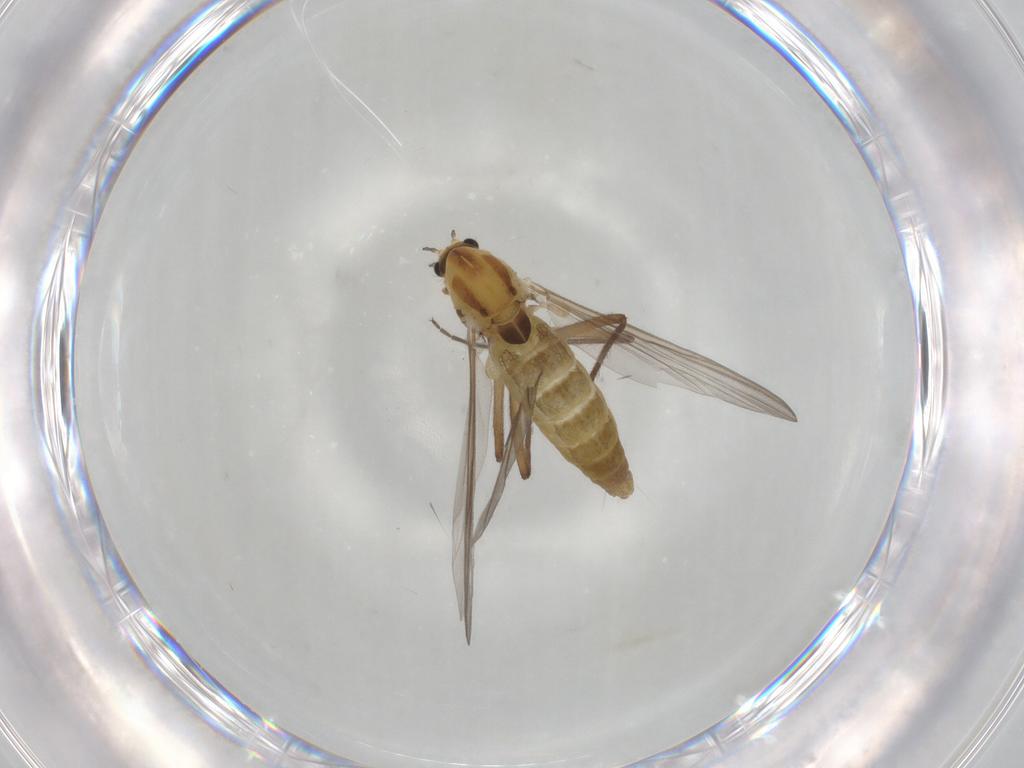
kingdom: Animalia
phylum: Arthropoda
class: Insecta
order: Diptera
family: Chironomidae
